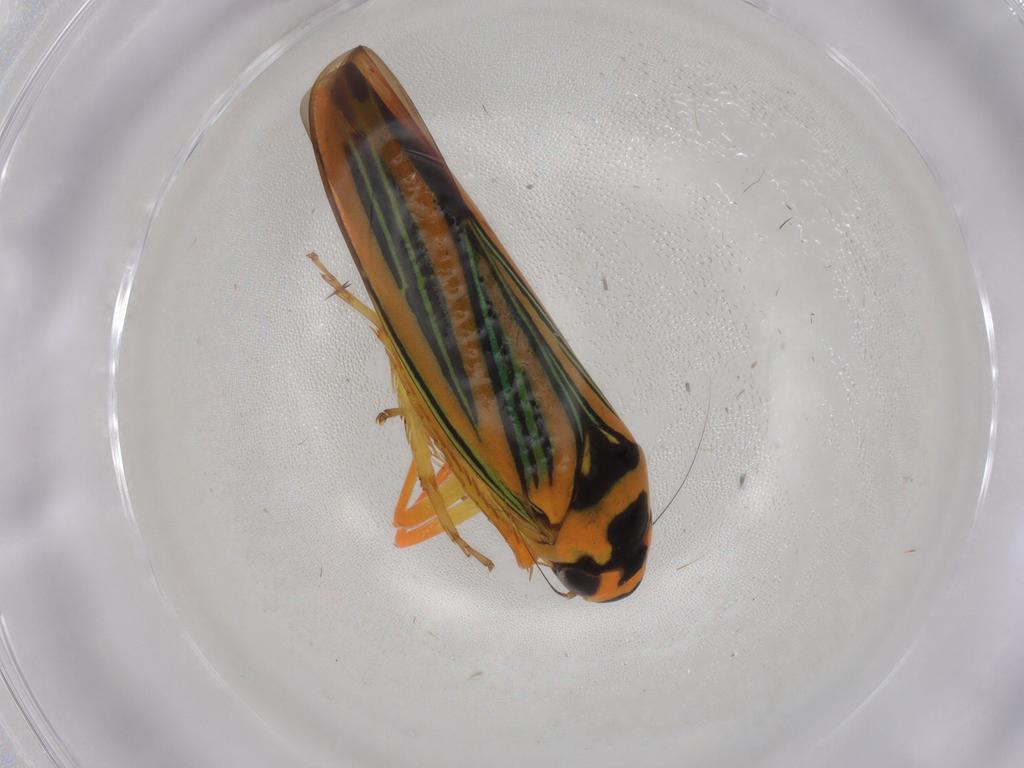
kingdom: Animalia
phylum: Arthropoda
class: Insecta
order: Hemiptera
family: Cicadellidae
